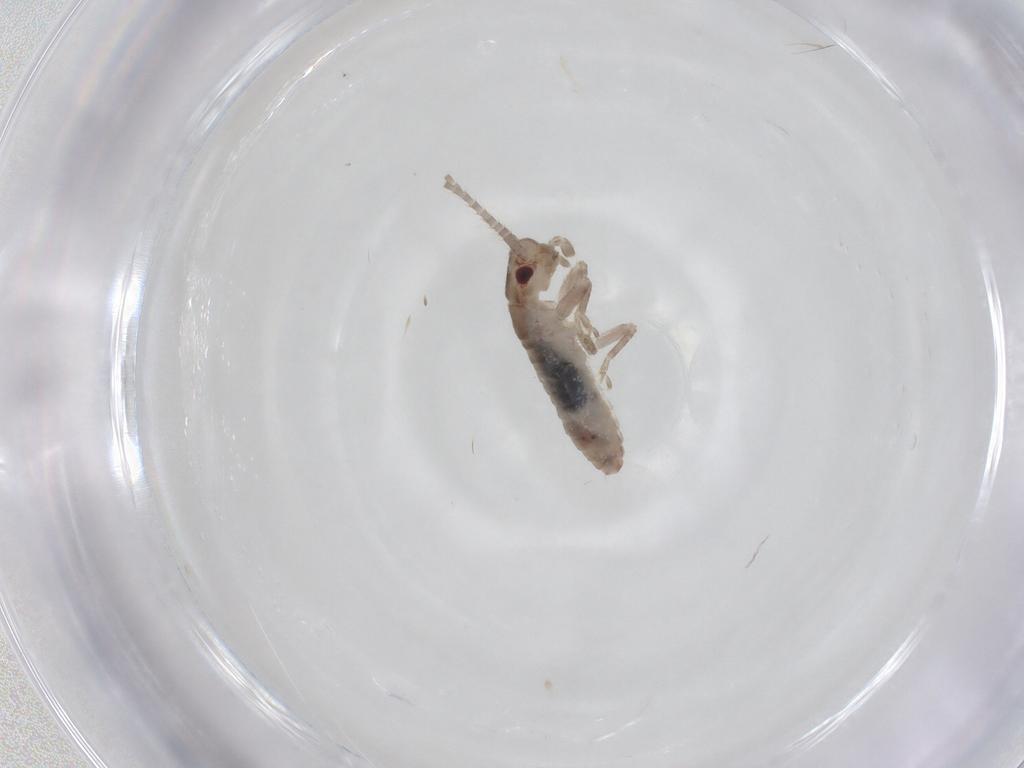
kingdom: Animalia
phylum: Arthropoda
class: Insecta
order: Orthoptera
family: Mogoplistidae
